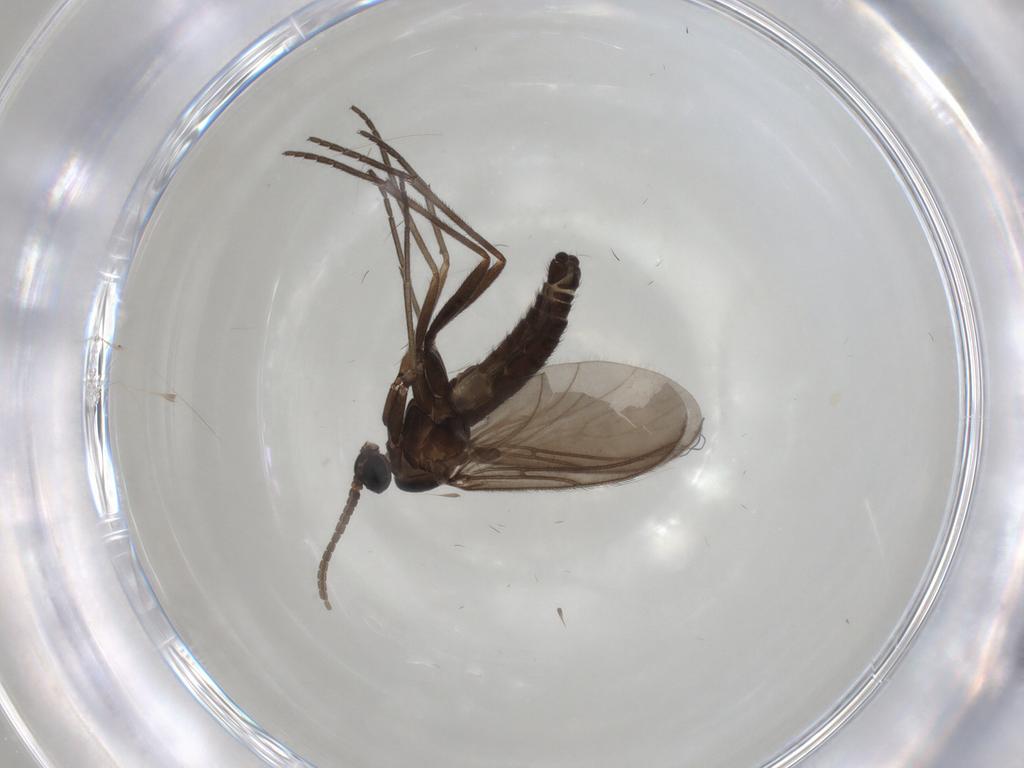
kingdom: Animalia
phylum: Arthropoda
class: Insecta
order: Diptera
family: Sciaridae
